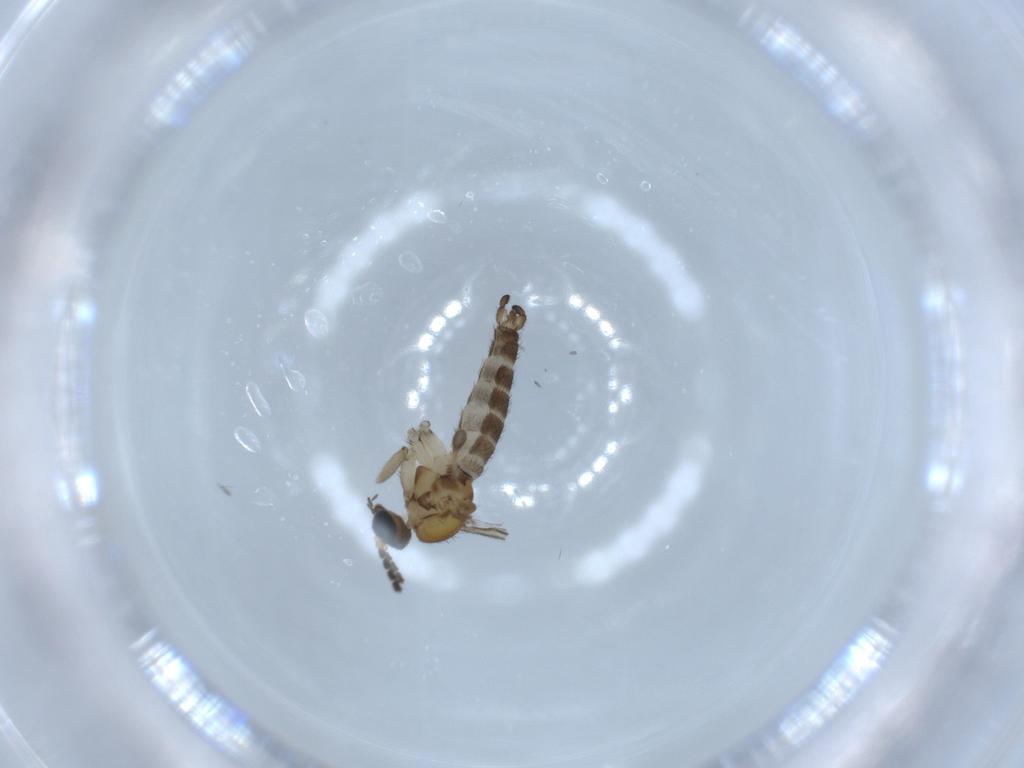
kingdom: Animalia
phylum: Arthropoda
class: Insecta
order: Diptera
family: Sciaridae
